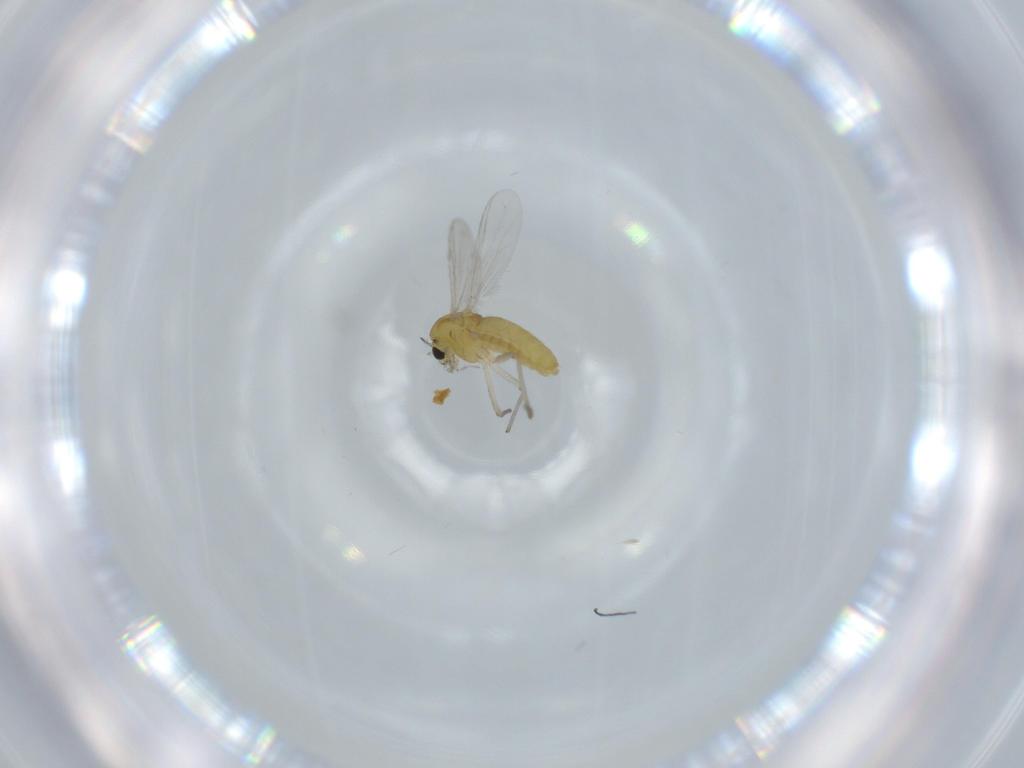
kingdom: Animalia
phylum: Arthropoda
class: Insecta
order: Diptera
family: Chironomidae
